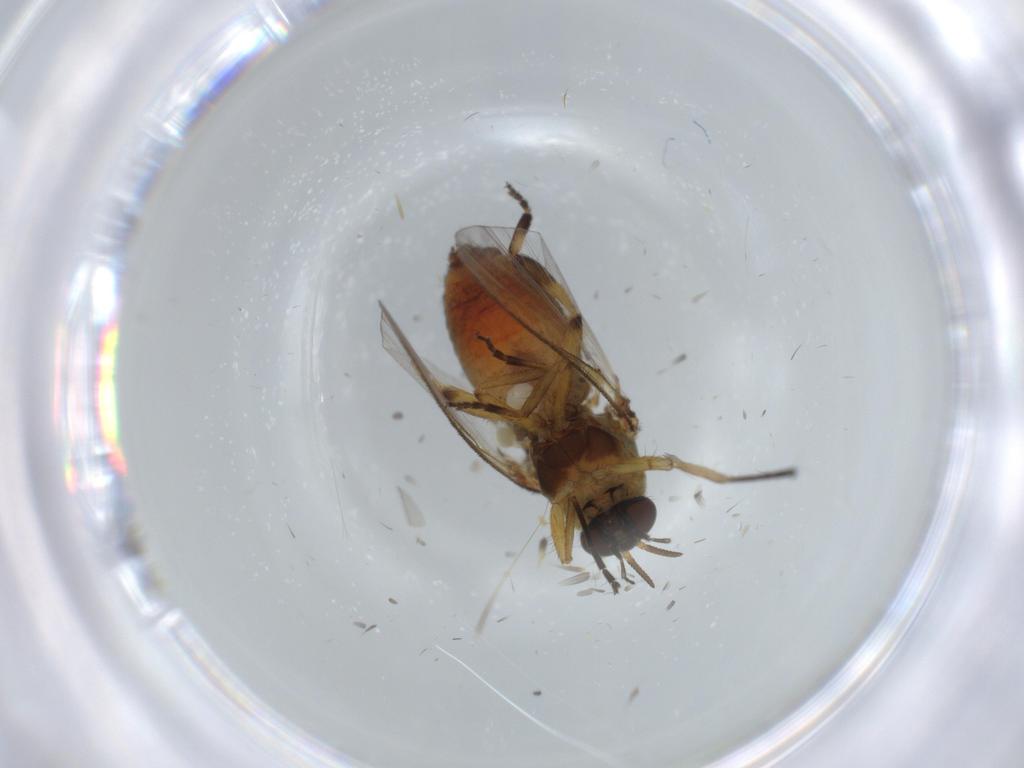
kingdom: Animalia
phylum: Arthropoda
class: Insecta
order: Diptera
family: Simuliidae
